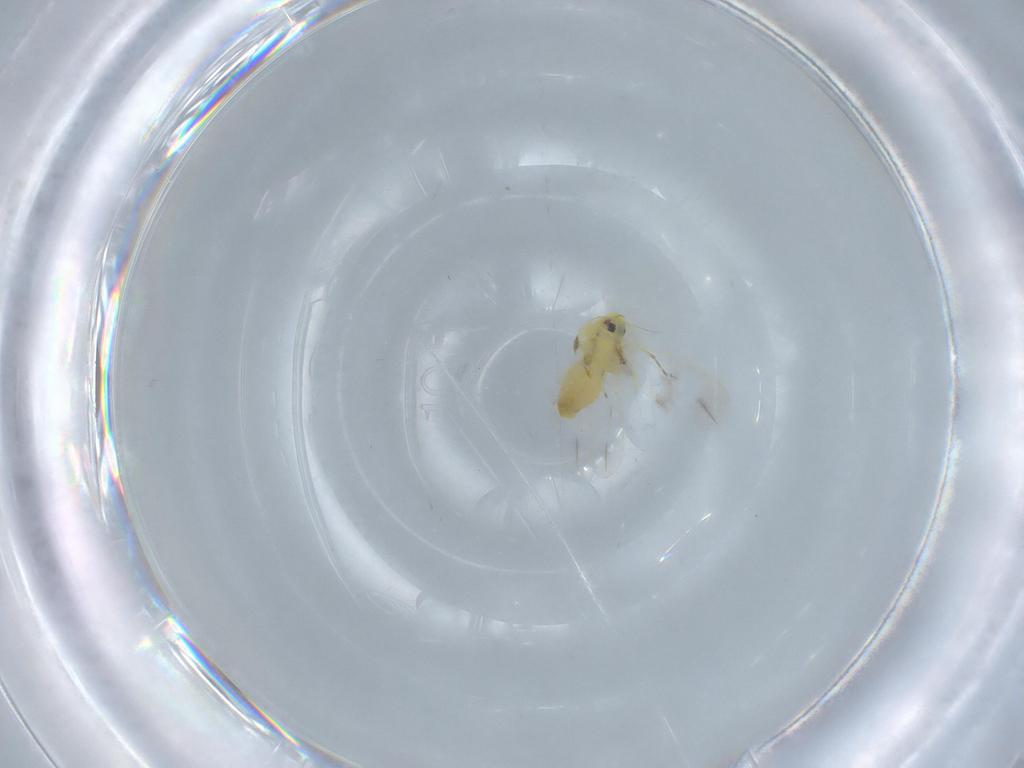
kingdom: Animalia
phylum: Arthropoda
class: Insecta
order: Hemiptera
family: Aleyrodidae
